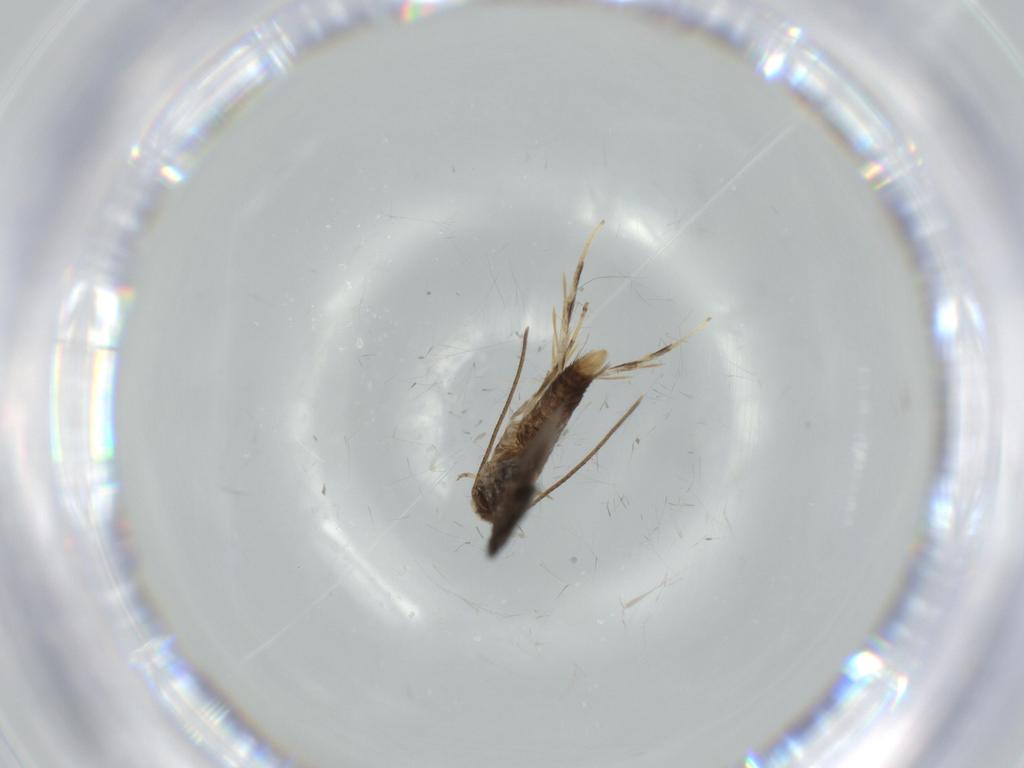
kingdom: Animalia
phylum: Arthropoda
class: Insecta
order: Lepidoptera
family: Cosmopterigidae
